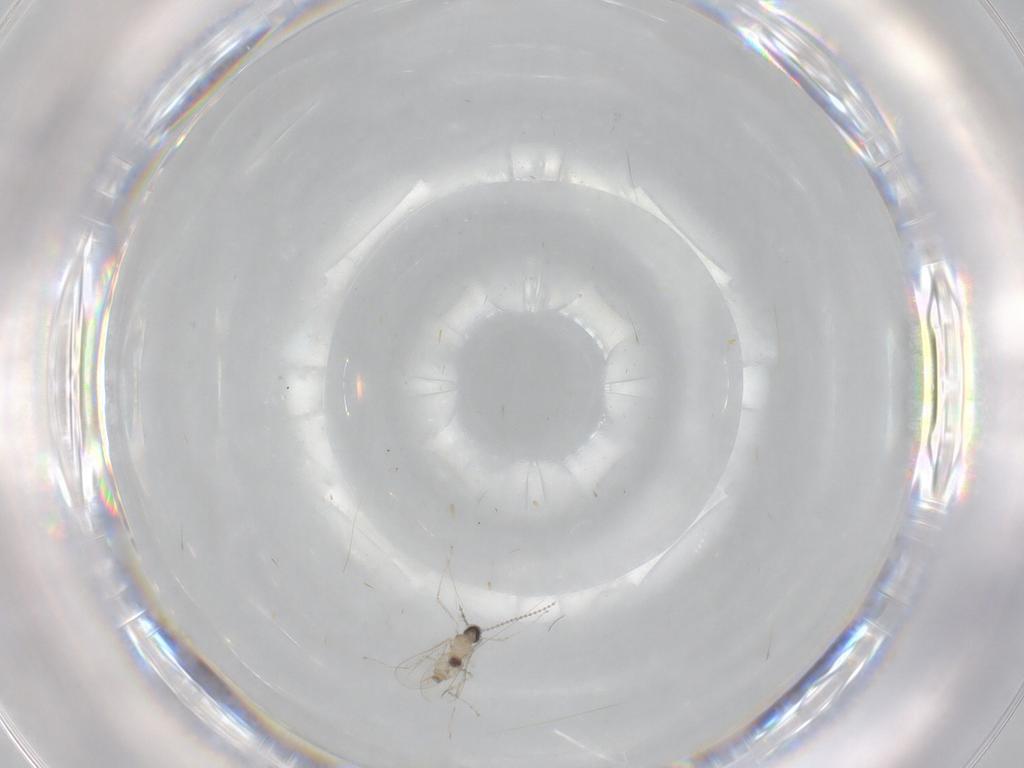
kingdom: Animalia
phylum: Arthropoda
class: Insecta
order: Diptera
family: Cecidomyiidae
